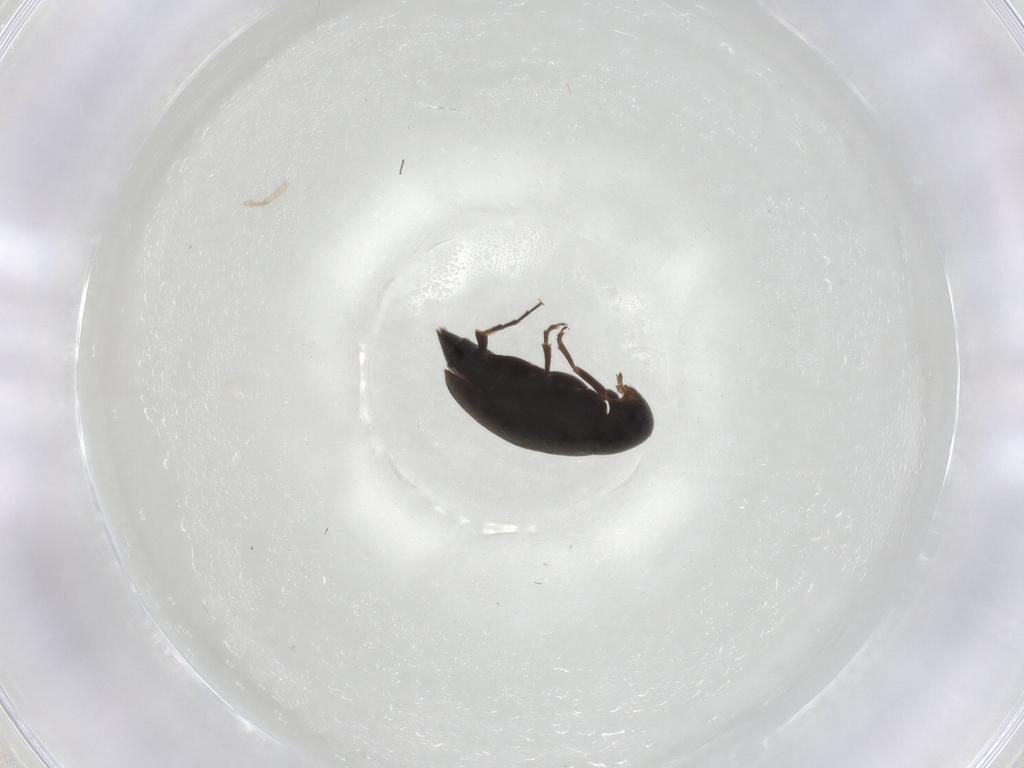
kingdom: Animalia
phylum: Arthropoda
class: Insecta
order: Coleoptera
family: Scraptiidae
